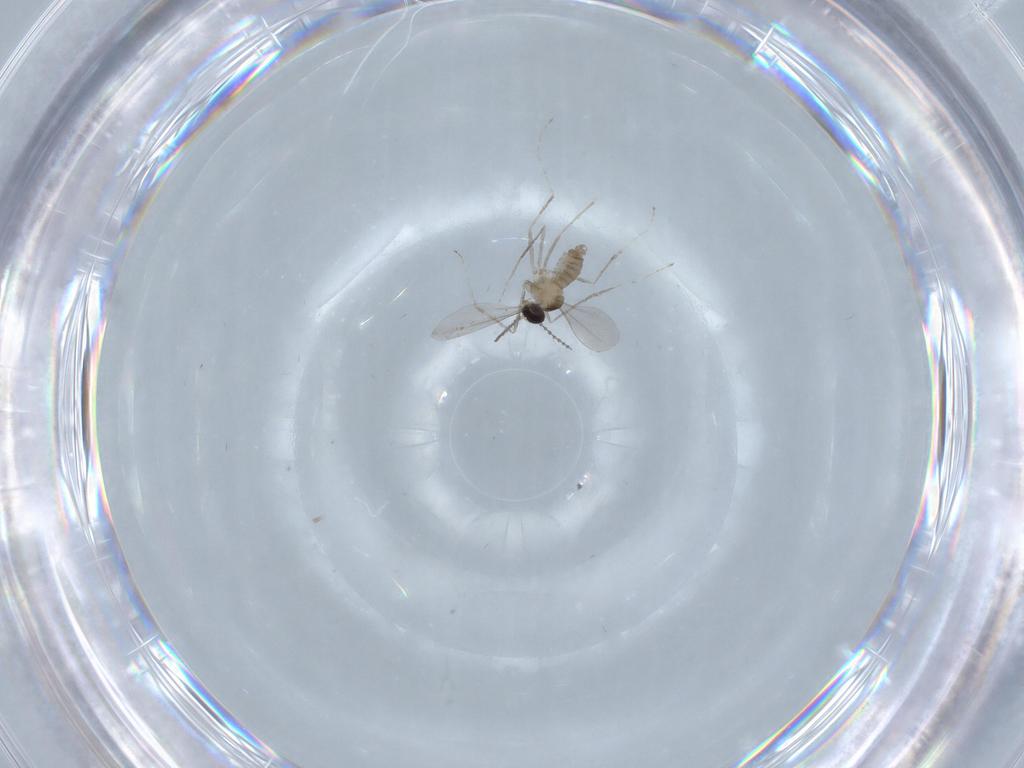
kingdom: Animalia
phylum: Arthropoda
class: Insecta
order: Diptera
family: Cecidomyiidae
